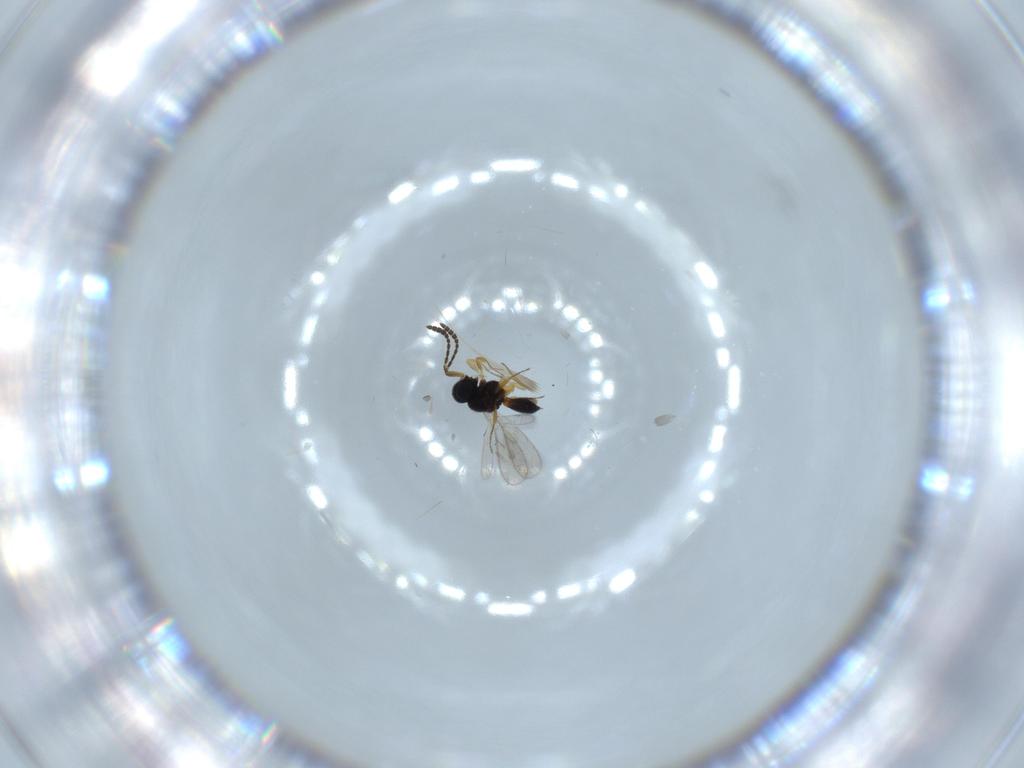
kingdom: Animalia
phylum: Arthropoda
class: Insecta
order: Hymenoptera
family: Scelionidae
